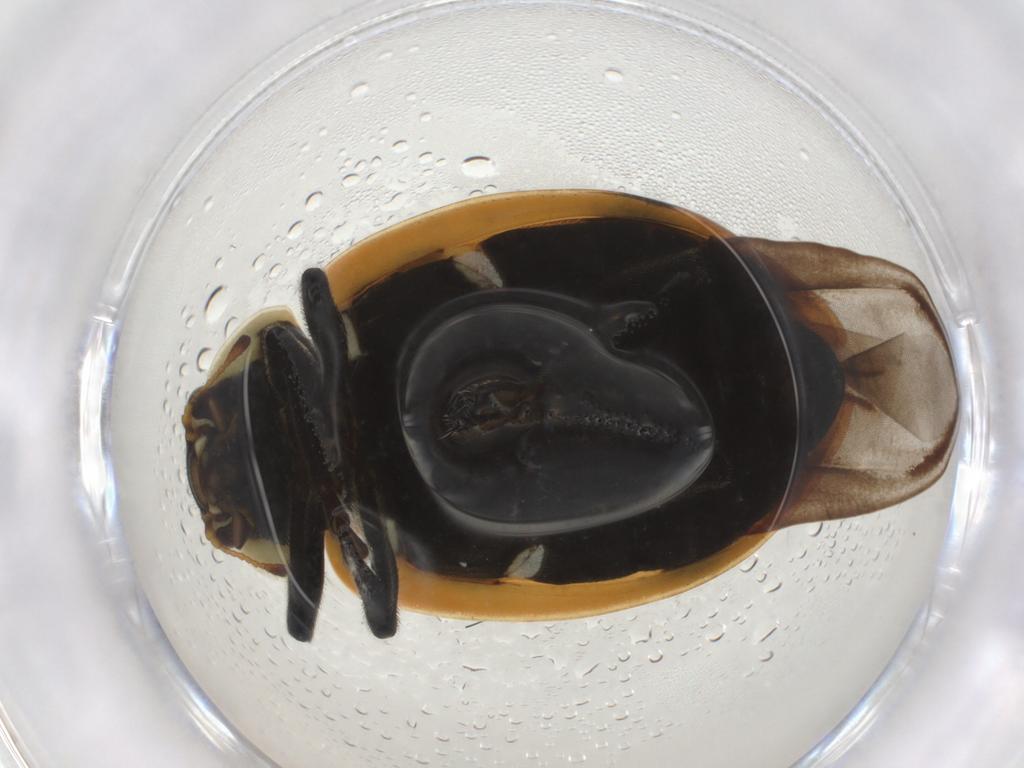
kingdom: Animalia
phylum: Arthropoda
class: Insecta
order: Coleoptera
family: Coccinellidae
